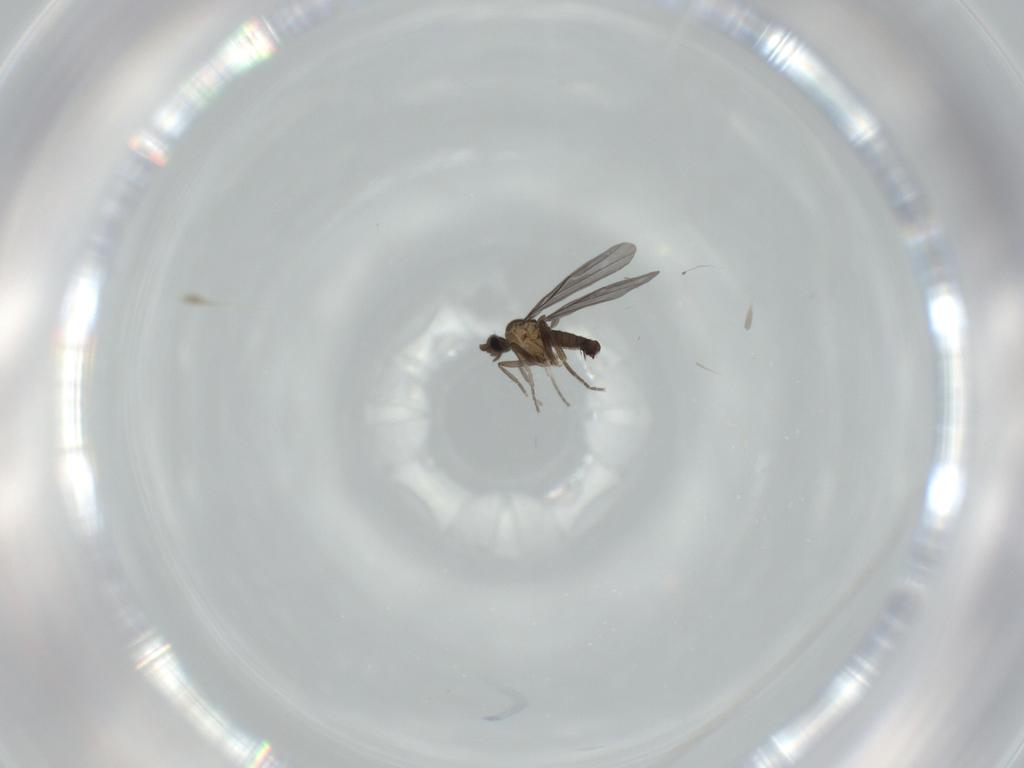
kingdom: Animalia
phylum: Arthropoda
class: Insecta
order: Diptera
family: Phoridae
